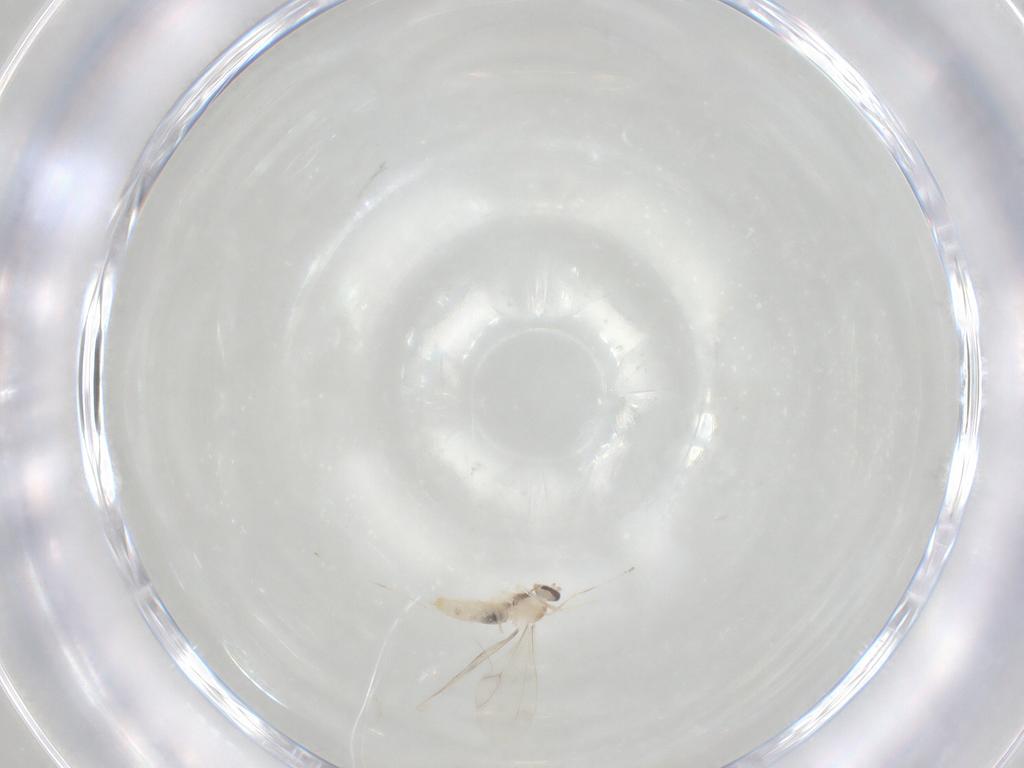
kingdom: Animalia
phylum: Arthropoda
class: Insecta
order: Diptera
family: Cecidomyiidae
